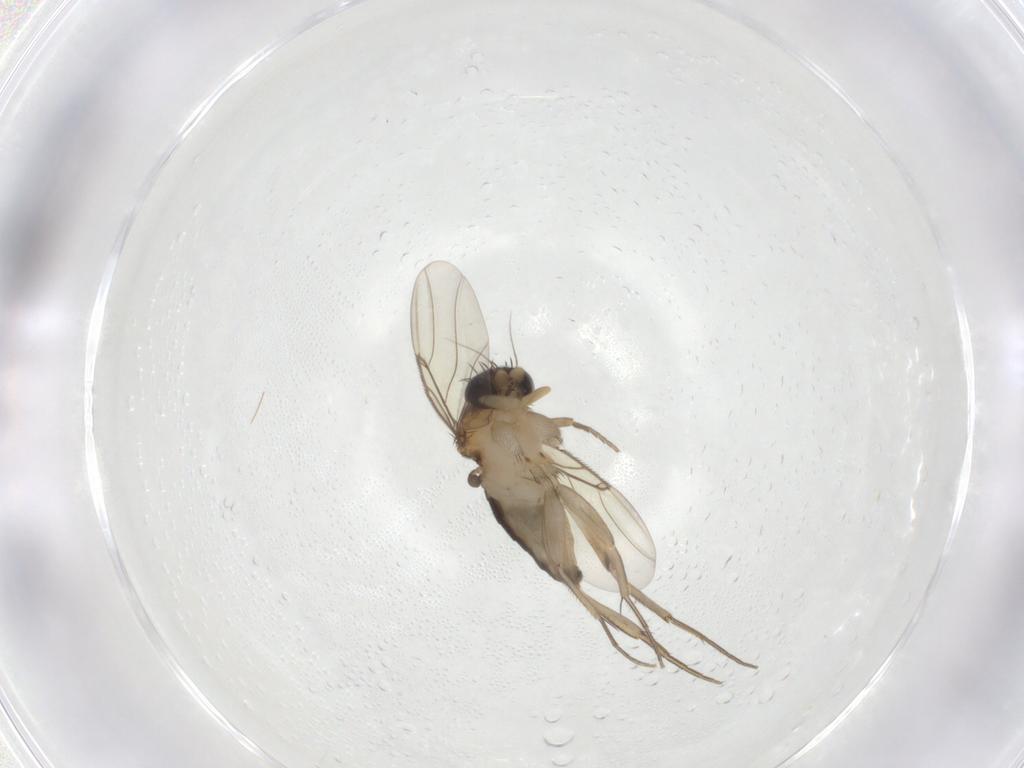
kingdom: Animalia
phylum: Arthropoda
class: Insecta
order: Diptera
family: Phoridae
